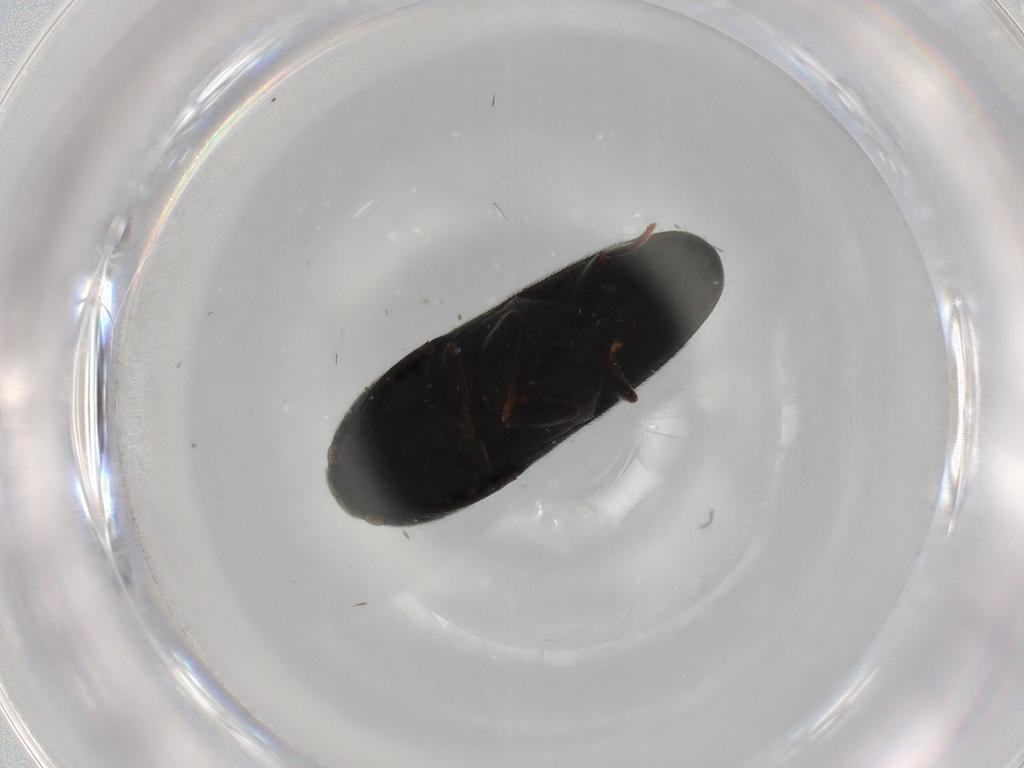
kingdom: Animalia
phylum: Arthropoda
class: Insecta
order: Coleoptera
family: Eucnemidae
